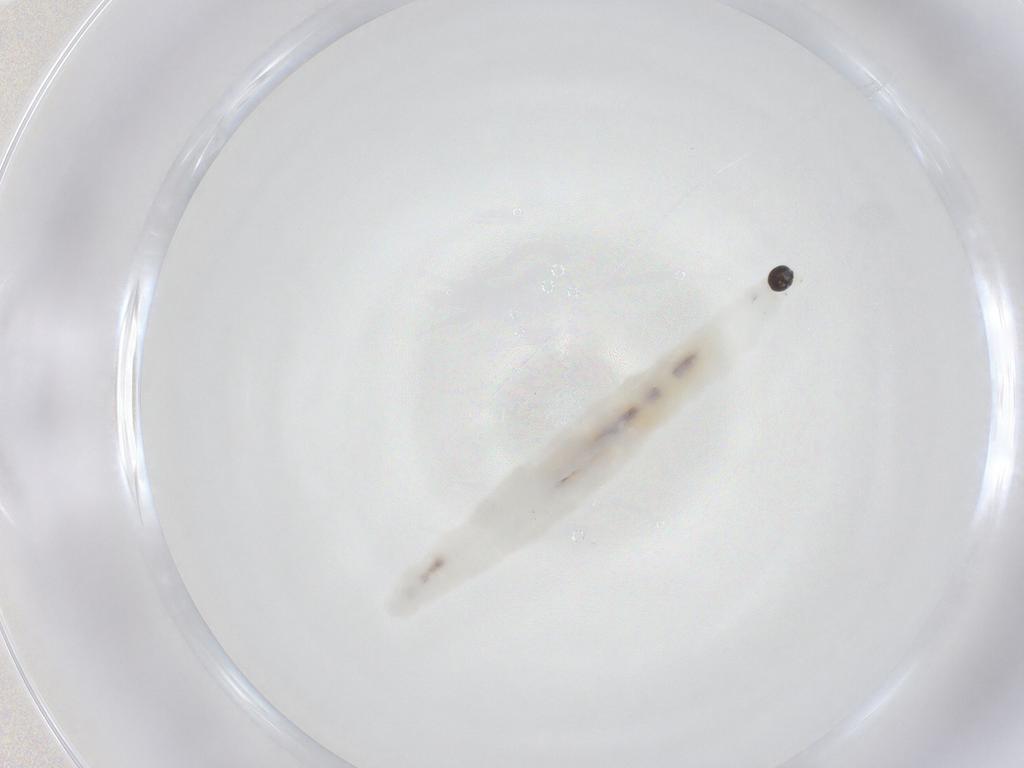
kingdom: Animalia
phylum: Arthropoda
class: Insecta
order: Diptera
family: Sciaridae
